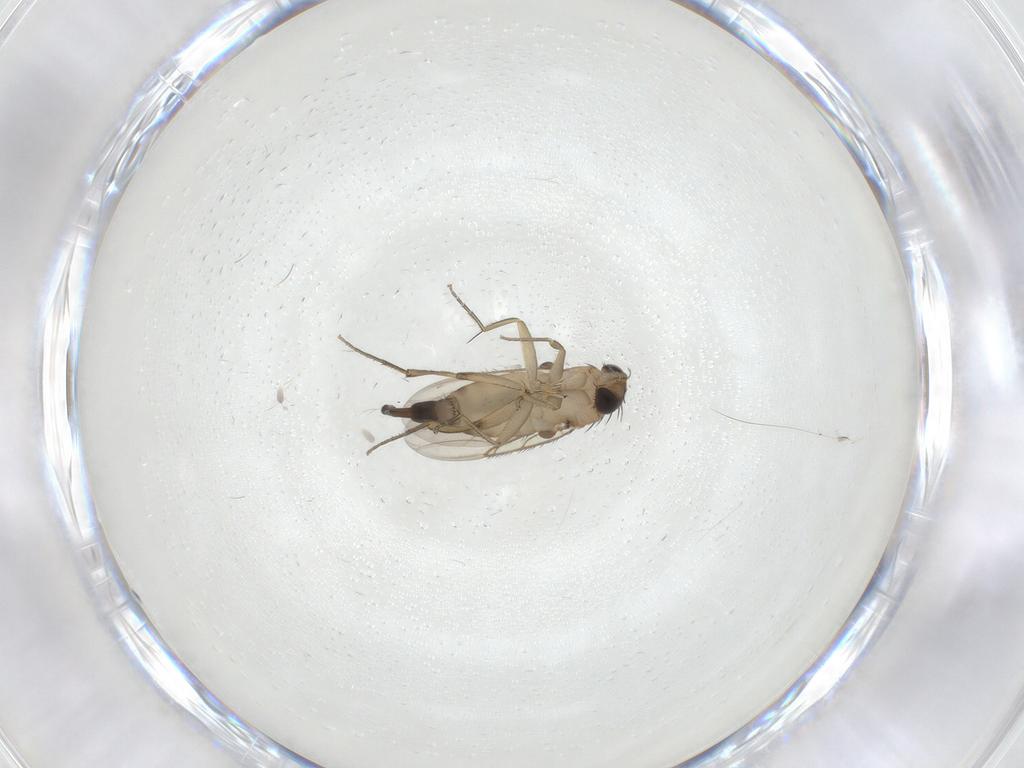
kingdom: Animalia
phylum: Arthropoda
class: Insecta
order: Diptera
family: Phoridae
